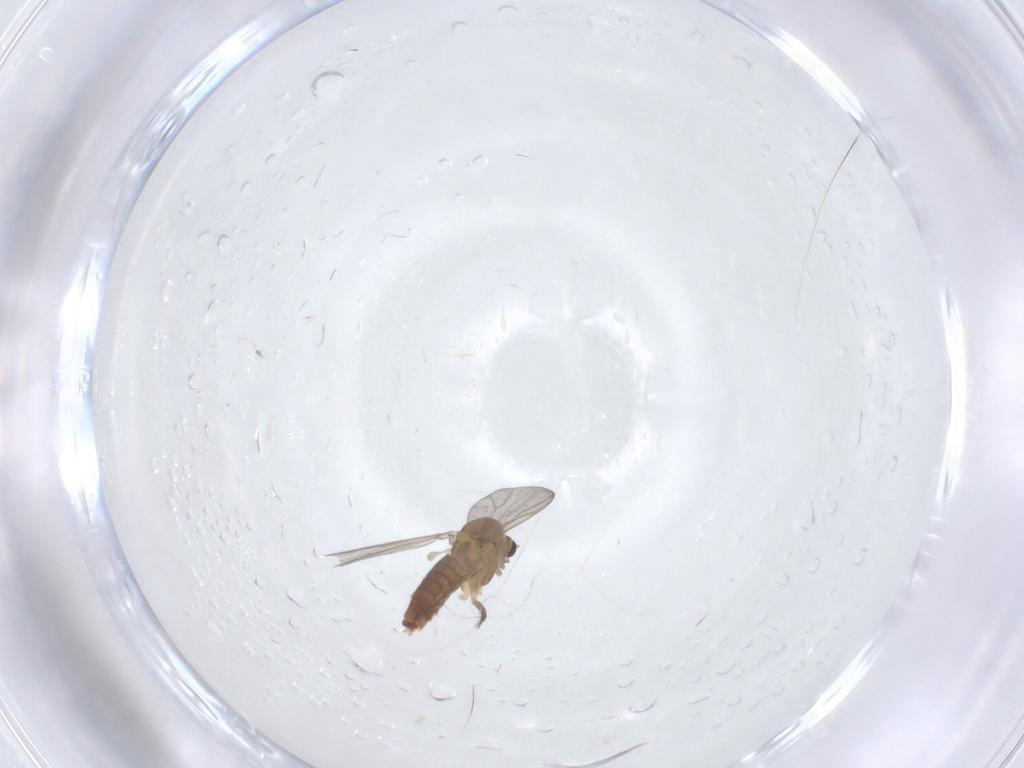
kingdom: Animalia
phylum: Arthropoda
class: Insecta
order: Diptera
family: Chironomidae
